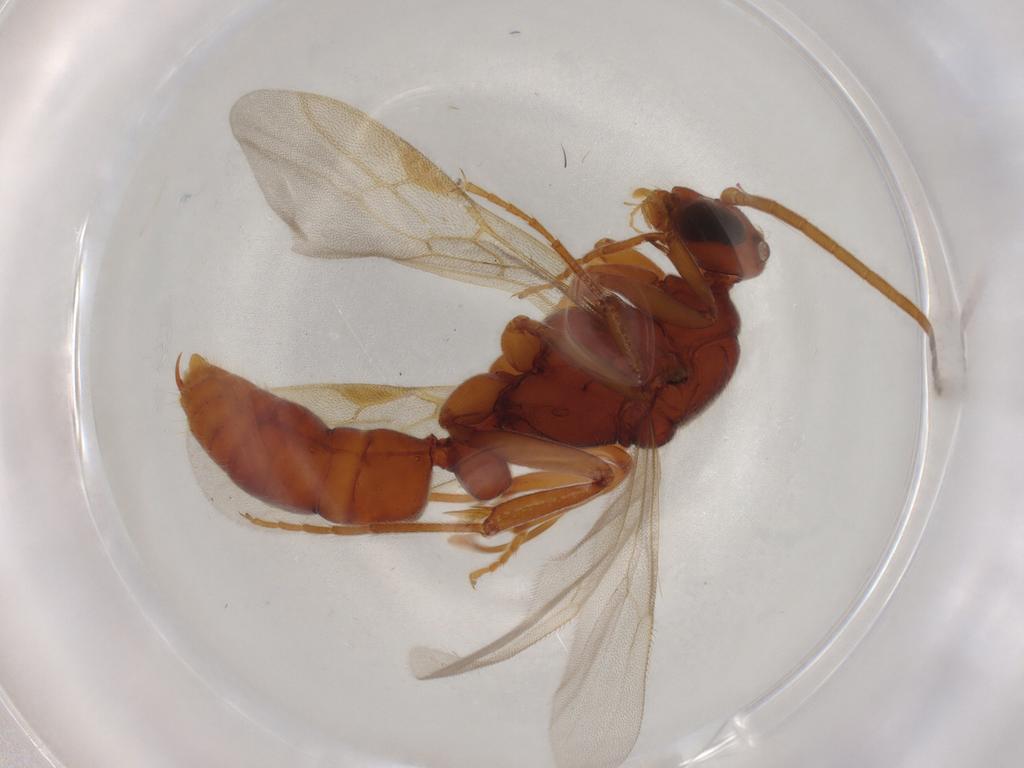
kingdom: Animalia
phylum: Arthropoda
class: Insecta
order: Hymenoptera
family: Formicidae
